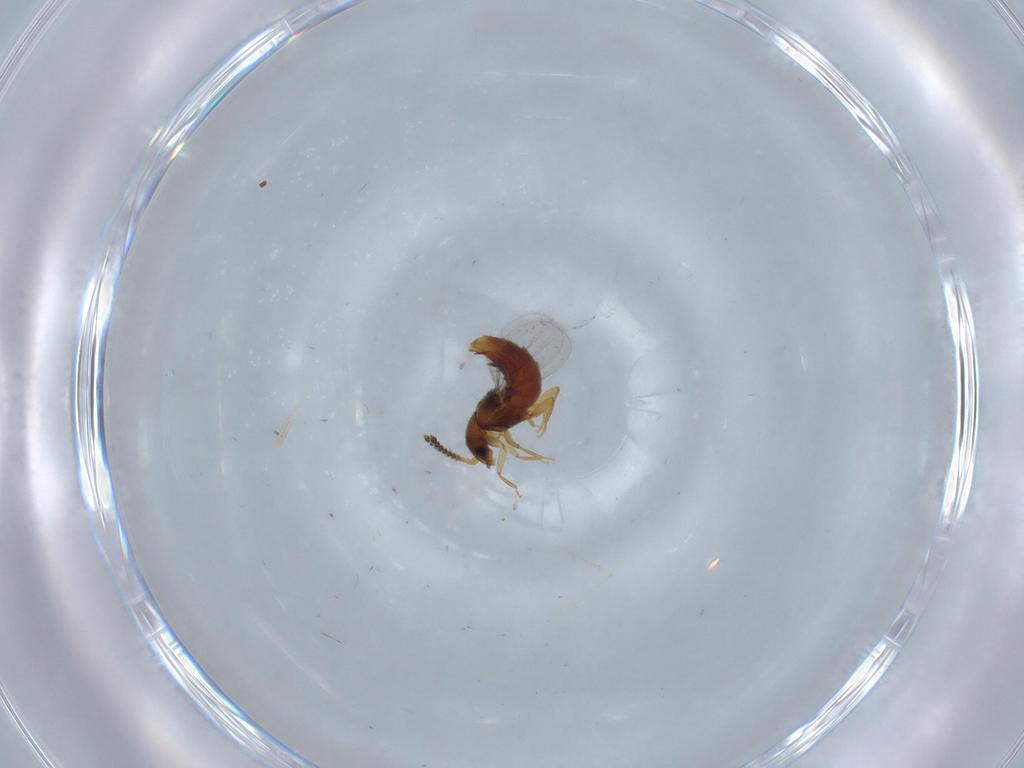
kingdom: Animalia
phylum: Arthropoda
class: Insecta
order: Coleoptera
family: Staphylinidae
